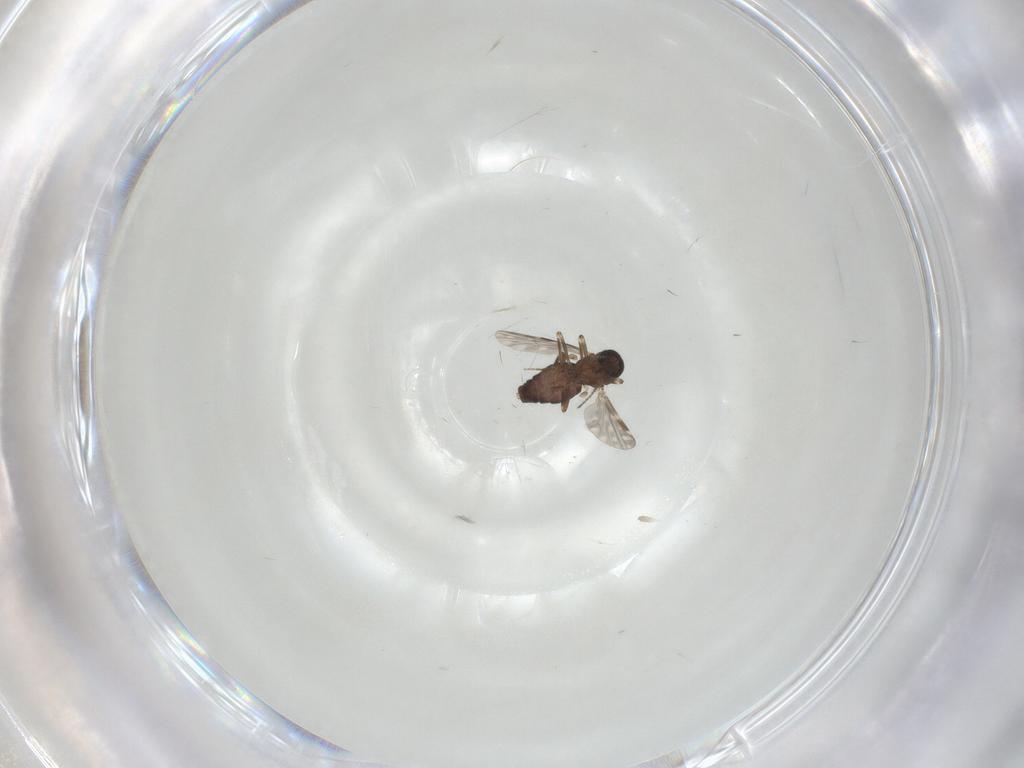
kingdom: Animalia
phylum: Arthropoda
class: Insecta
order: Diptera
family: Ceratopogonidae
